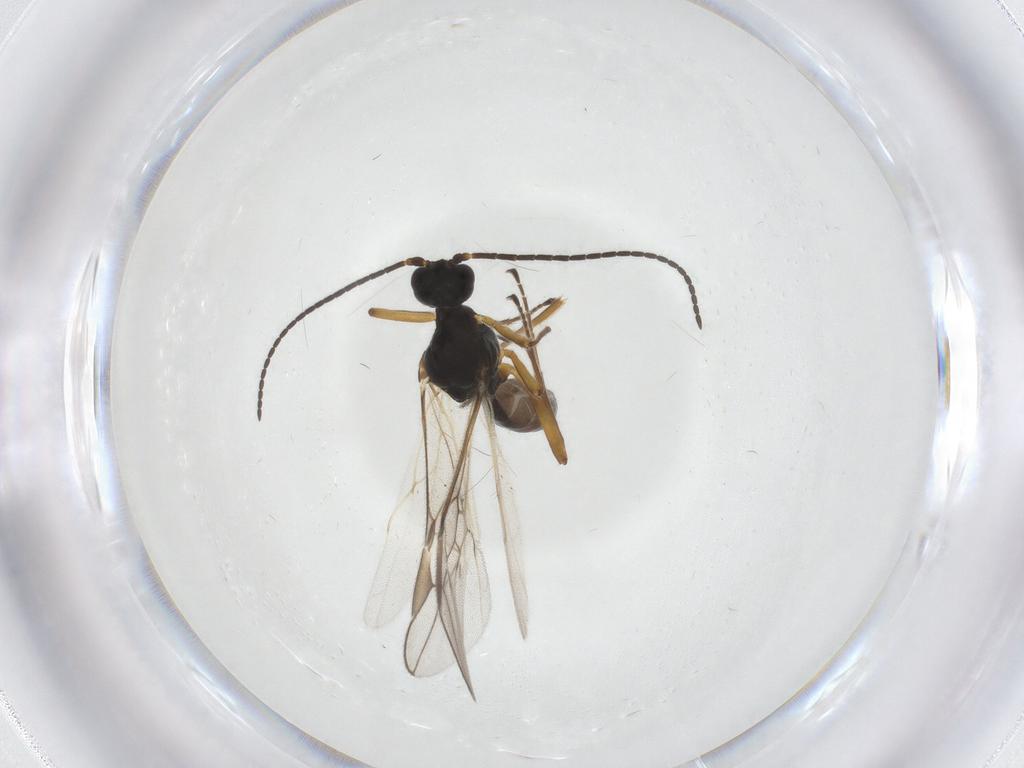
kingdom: Animalia
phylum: Arthropoda
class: Insecta
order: Hymenoptera
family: Braconidae
